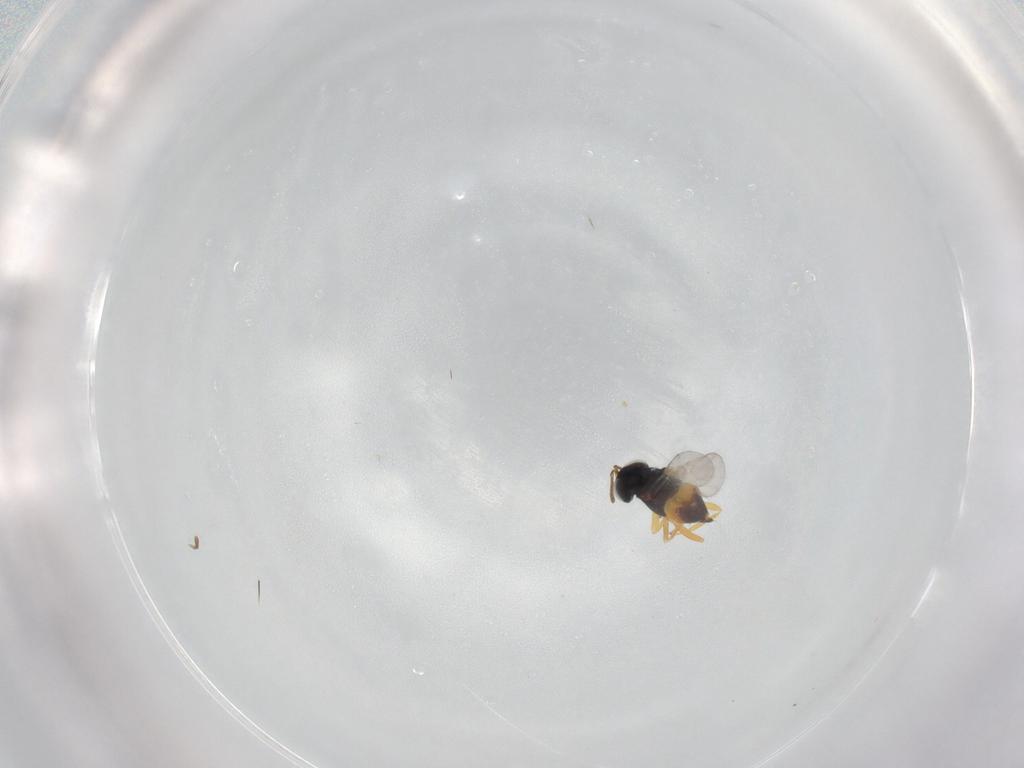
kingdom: Animalia
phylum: Arthropoda
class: Insecta
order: Hymenoptera
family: Encyrtidae
